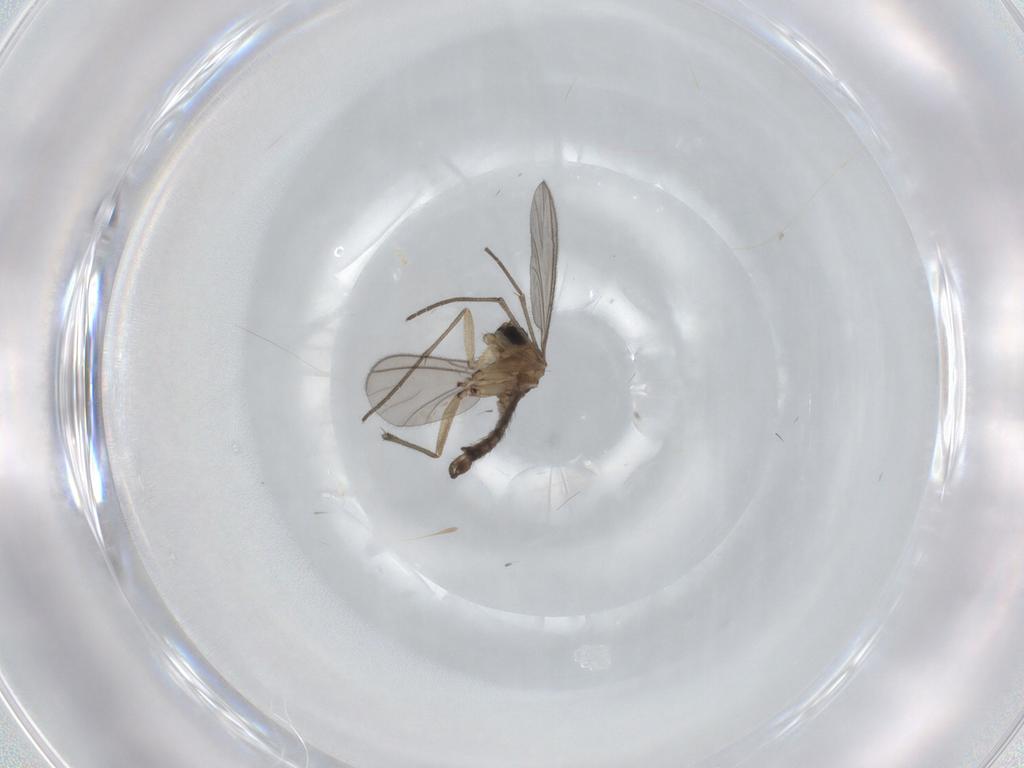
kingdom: Animalia
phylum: Arthropoda
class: Insecta
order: Diptera
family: Sciaridae
